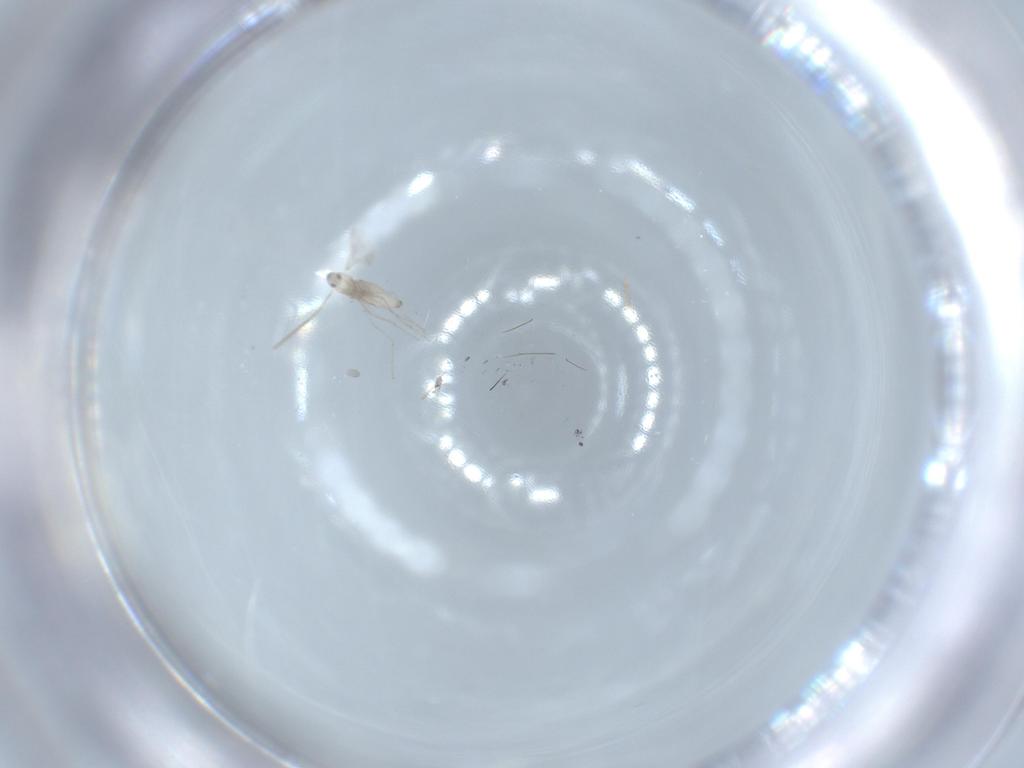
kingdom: Animalia
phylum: Arthropoda
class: Insecta
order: Diptera
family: Cecidomyiidae
